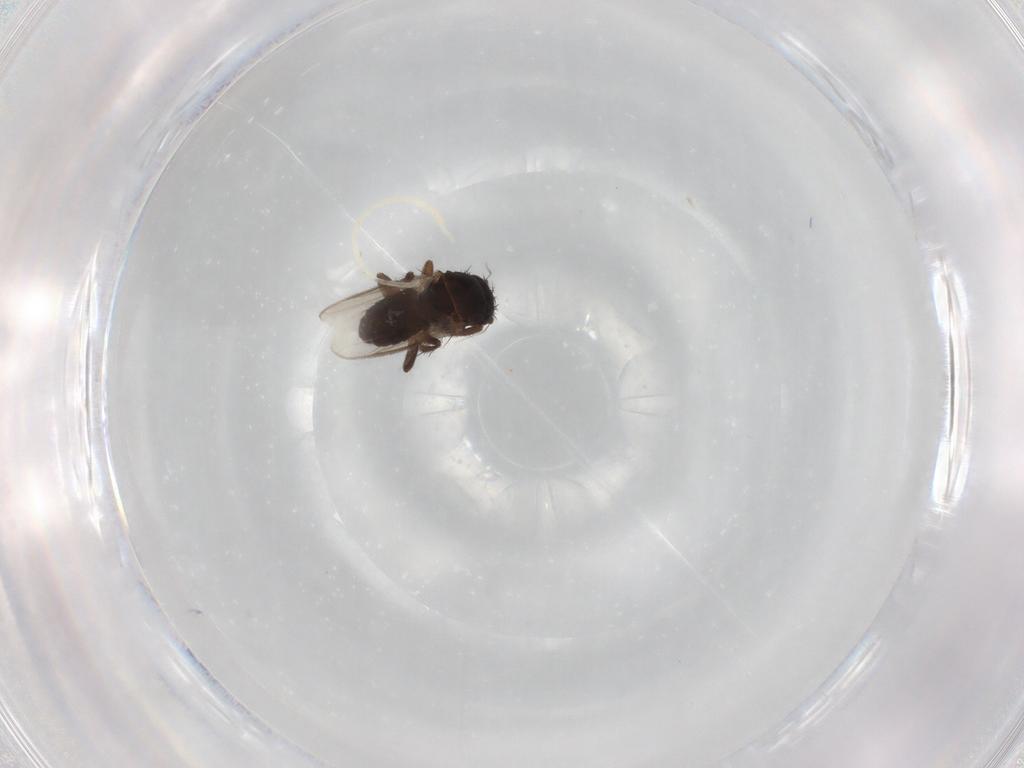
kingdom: Animalia
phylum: Arthropoda
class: Insecta
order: Diptera
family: Sphaeroceridae
